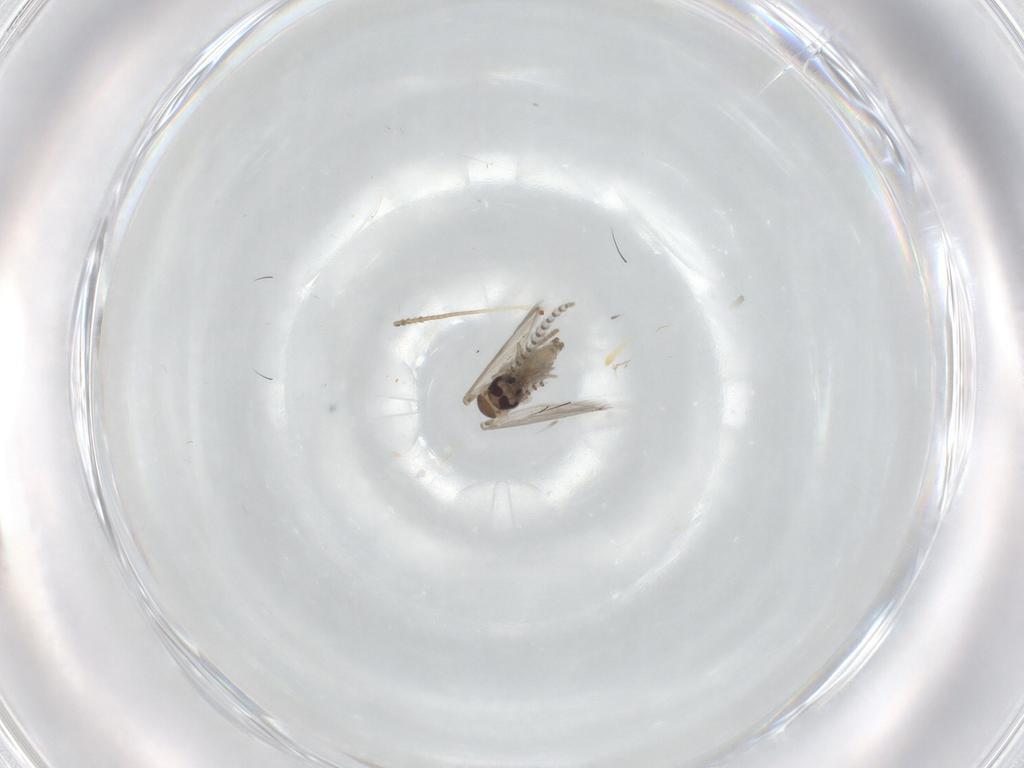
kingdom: Animalia
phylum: Arthropoda
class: Insecta
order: Diptera
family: Psychodidae
